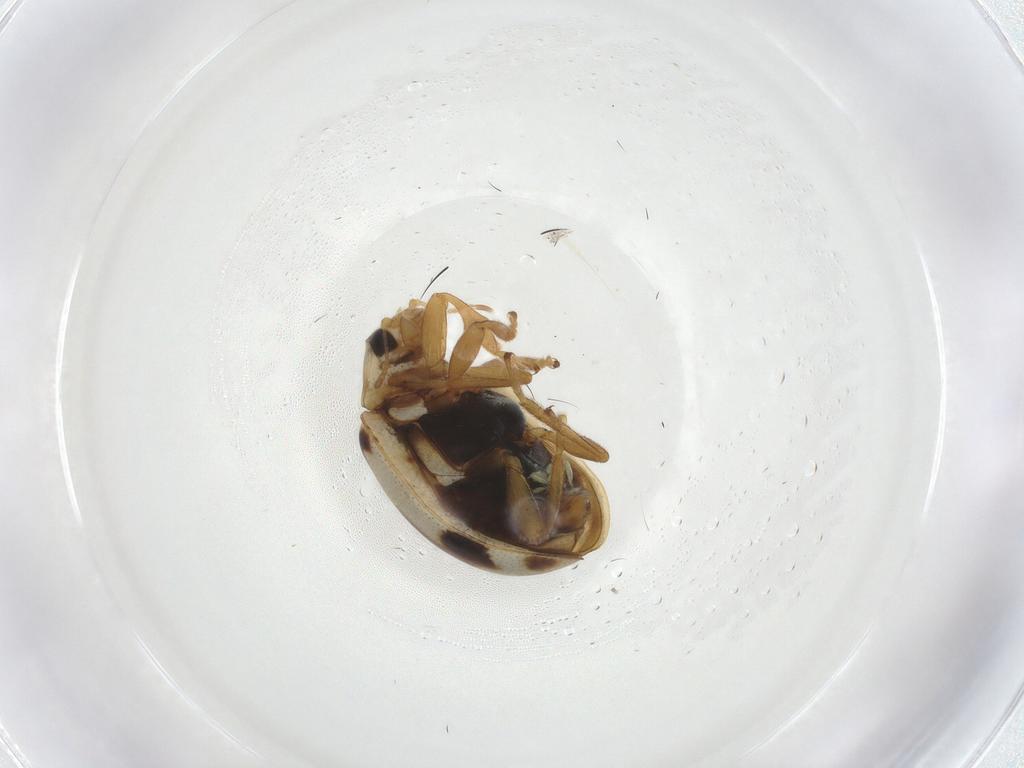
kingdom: Animalia
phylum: Arthropoda
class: Insecta
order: Coleoptera
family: Coccinellidae
